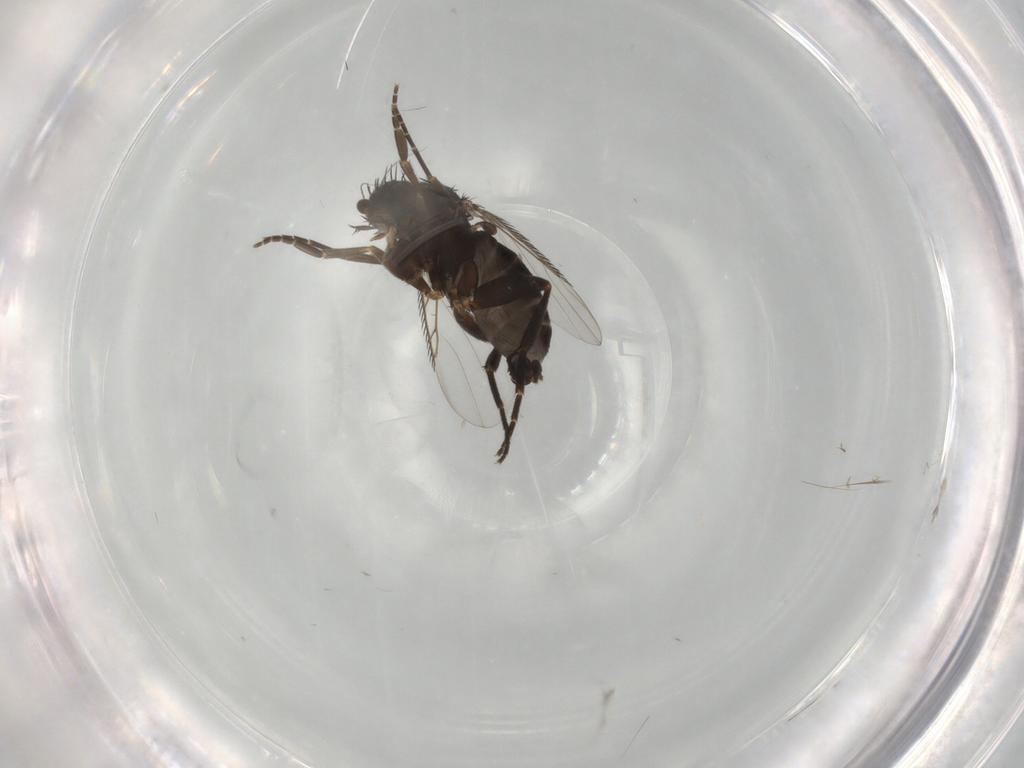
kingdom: Animalia
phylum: Arthropoda
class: Insecta
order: Diptera
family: Phoridae
